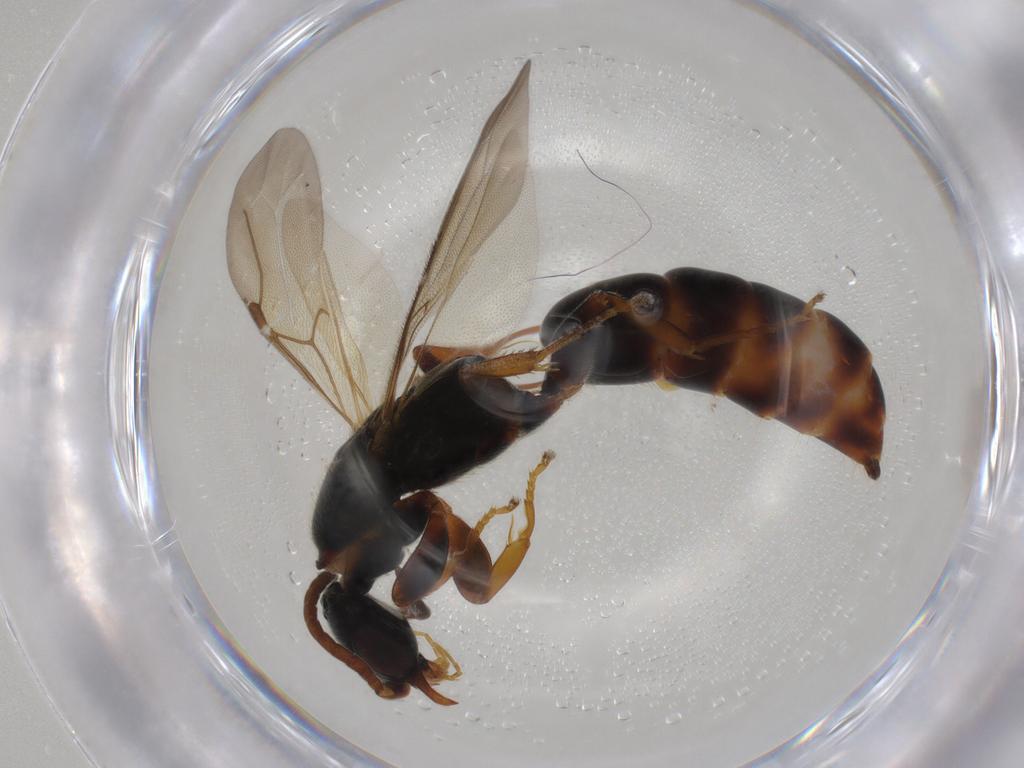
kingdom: Animalia
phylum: Arthropoda
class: Insecta
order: Hymenoptera
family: Bethylidae
